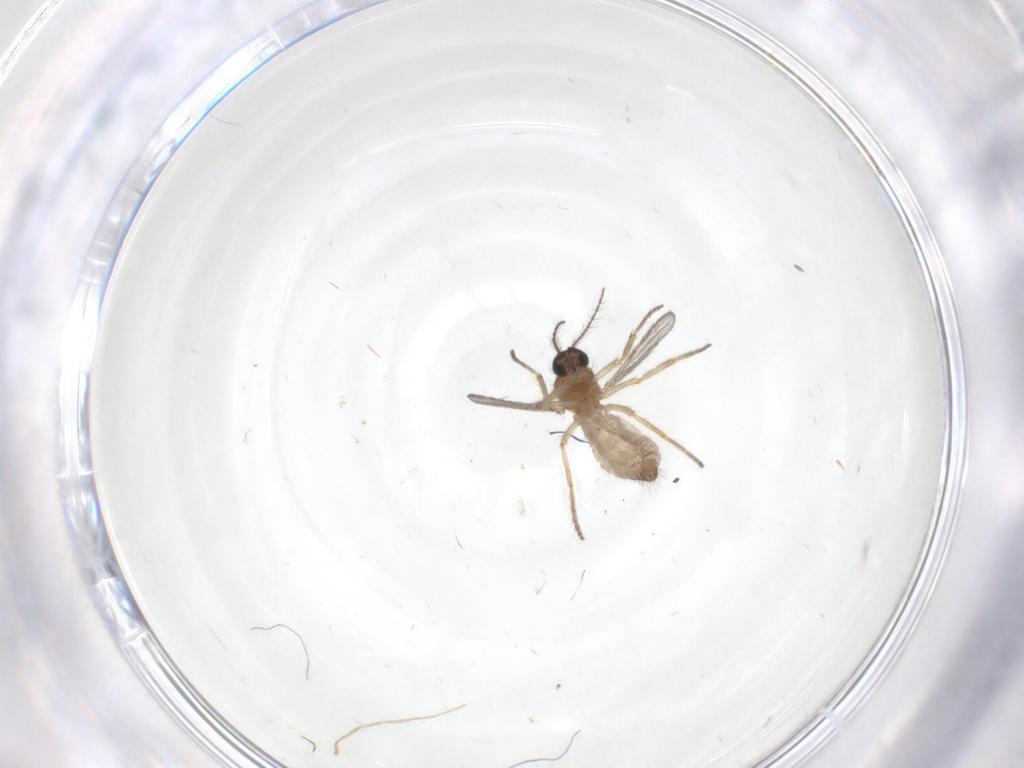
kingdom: Animalia
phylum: Arthropoda
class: Insecta
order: Diptera
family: Ceratopogonidae
